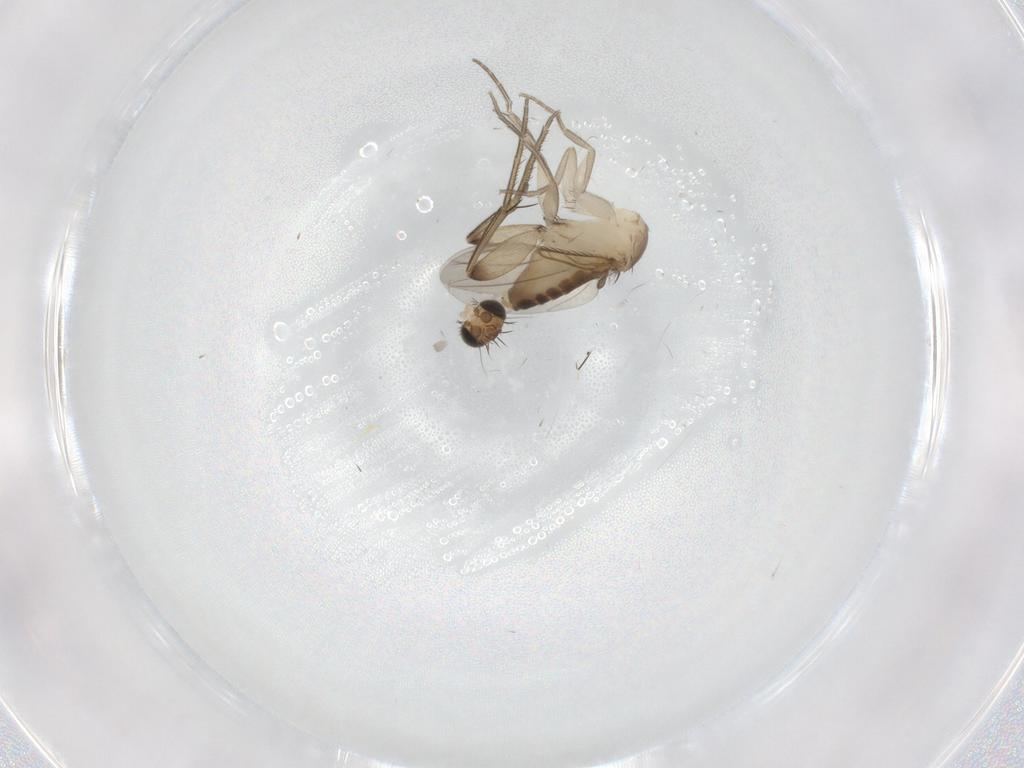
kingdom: Animalia
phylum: Arthropoda
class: Insecta
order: Diptera
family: Phoridae
